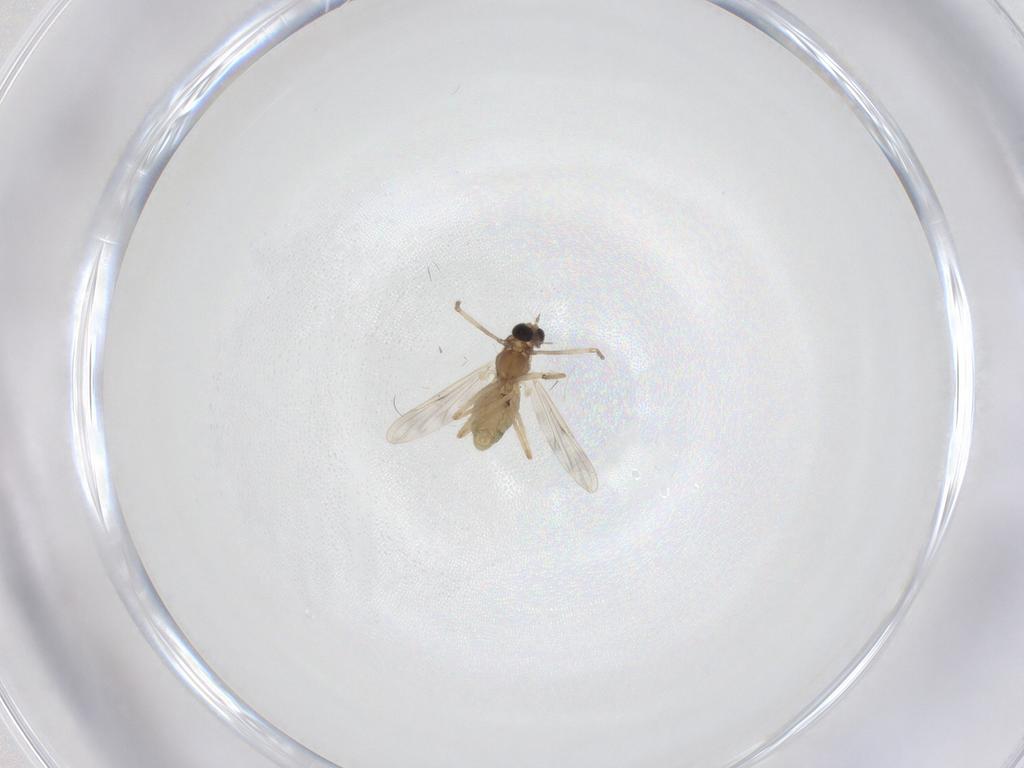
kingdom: Animalia
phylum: Arthropoda
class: Insecta
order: Diptera
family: Chironomidae
